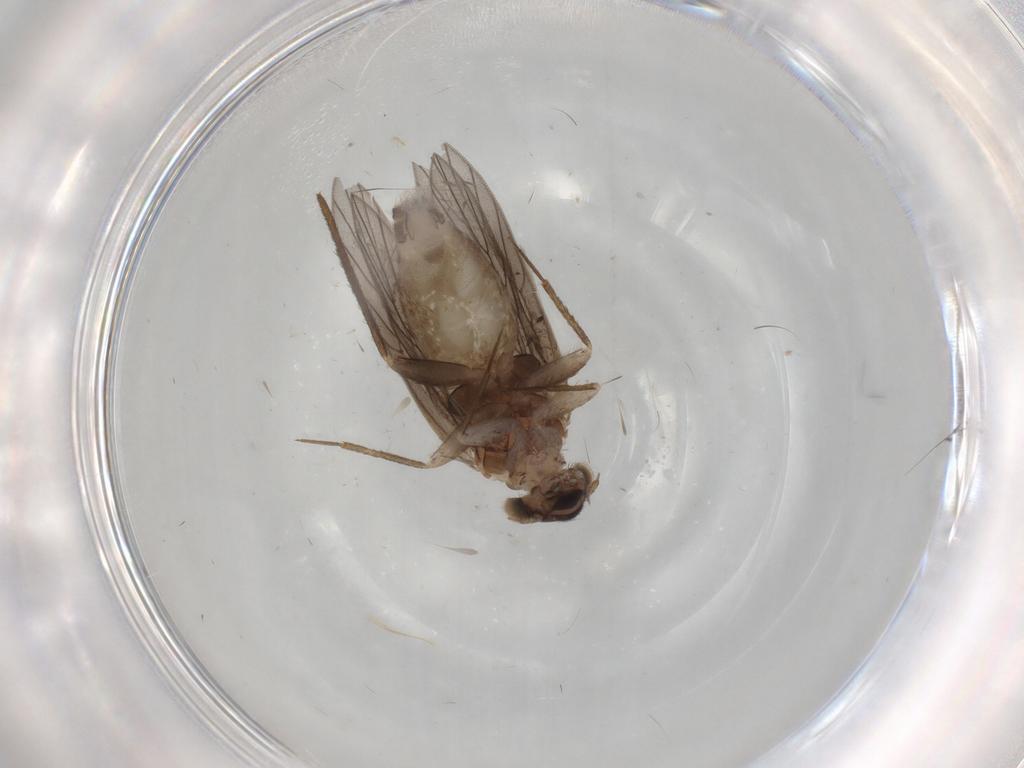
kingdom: Animalia
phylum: Arthropoda
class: Insecta
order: Psocodea
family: Lepidopsocidae
